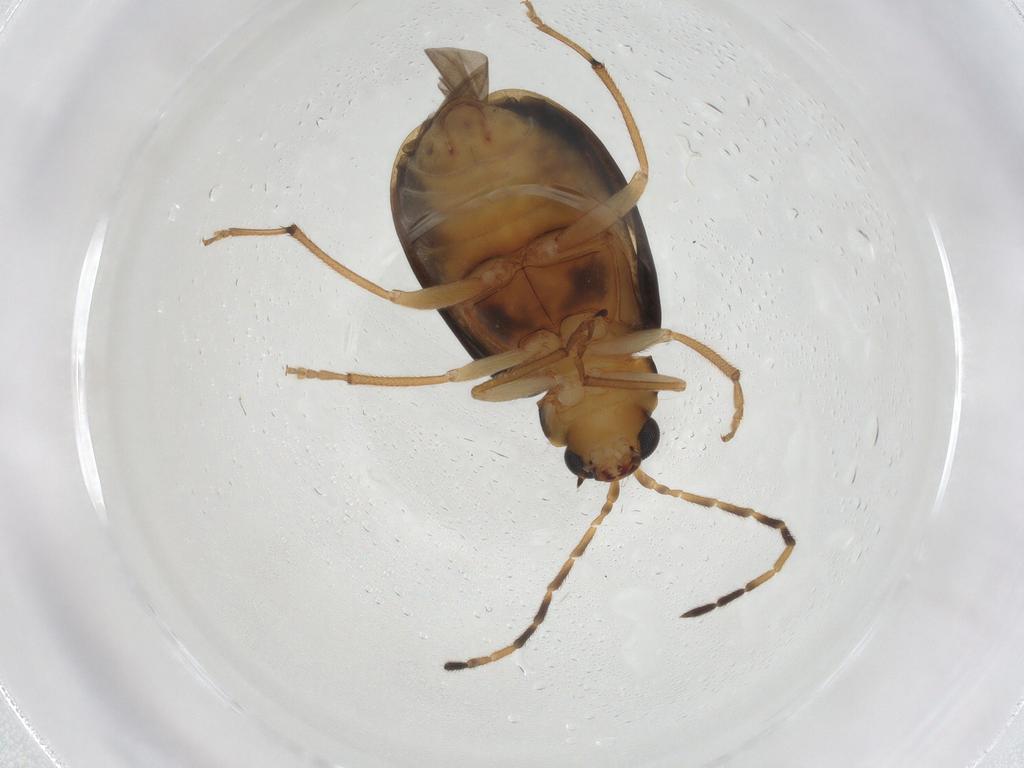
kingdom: Animalia
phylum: Arthropoda
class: Insecta
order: Coleoptera
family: Chrysomelidae
